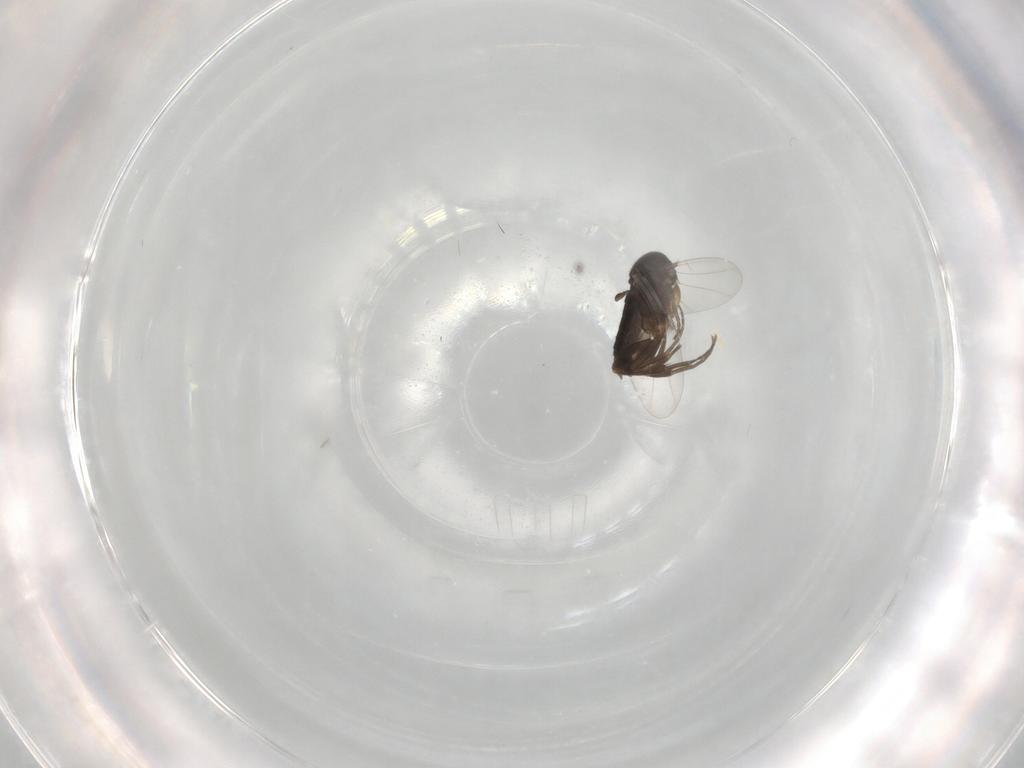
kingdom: Animalia
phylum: Arthropoda
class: Insecta
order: Diptera
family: Phoridae
